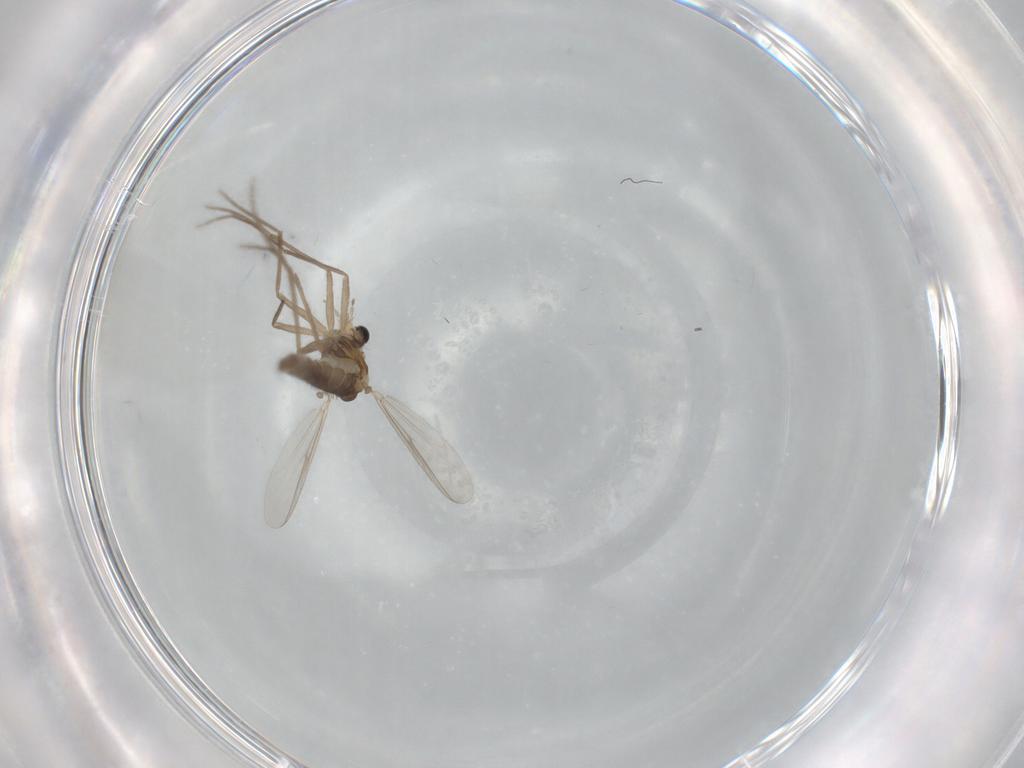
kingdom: Animalia
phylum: Arthropoda
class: Insecta
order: Diptera
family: Chironomidae
